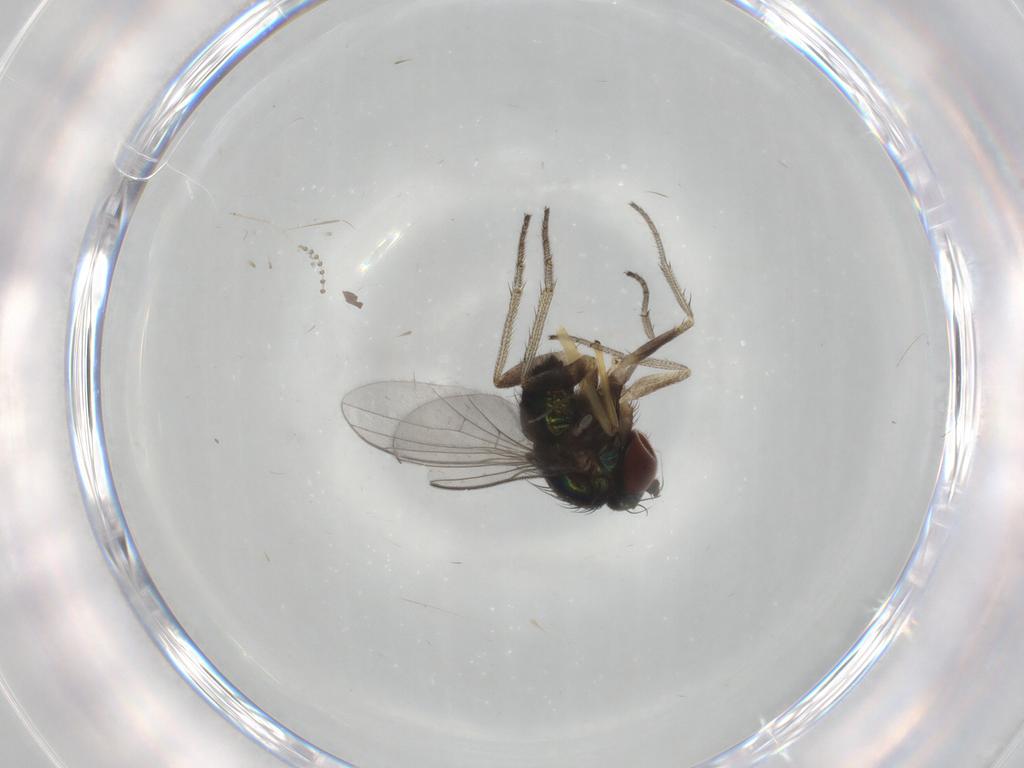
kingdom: Animalia
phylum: Arthropoda
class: Insecta
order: Diptera
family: Limoniidae
